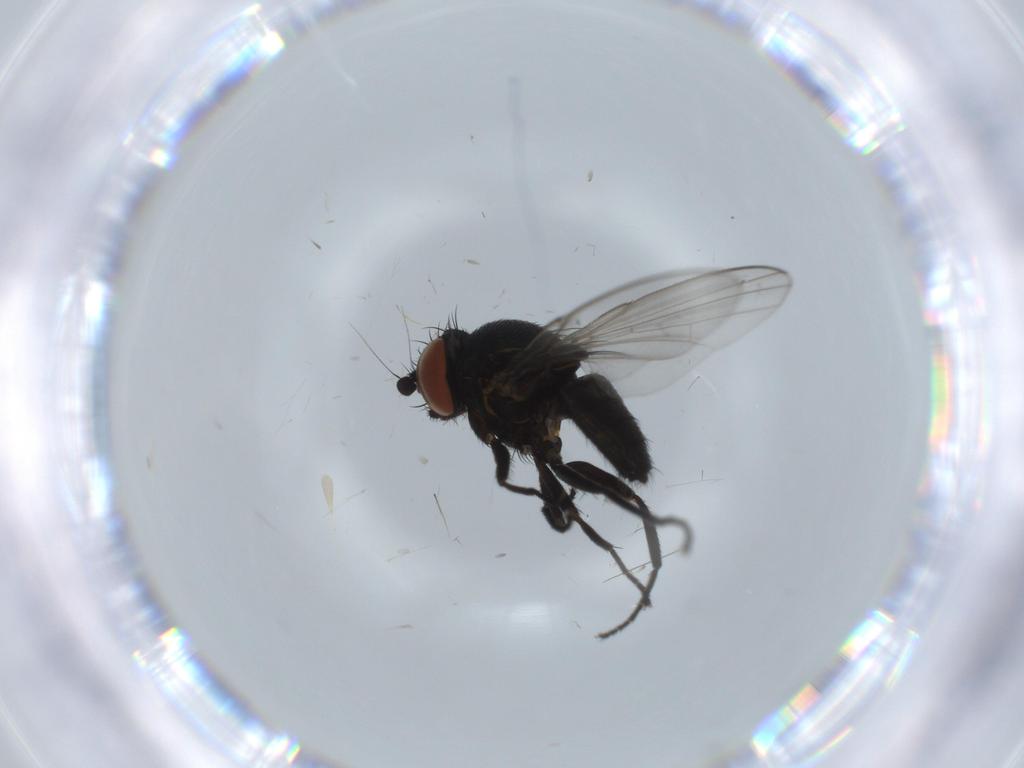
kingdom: Animalia
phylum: Arthropoda
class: Insecta
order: Diptera
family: Milichiidae
